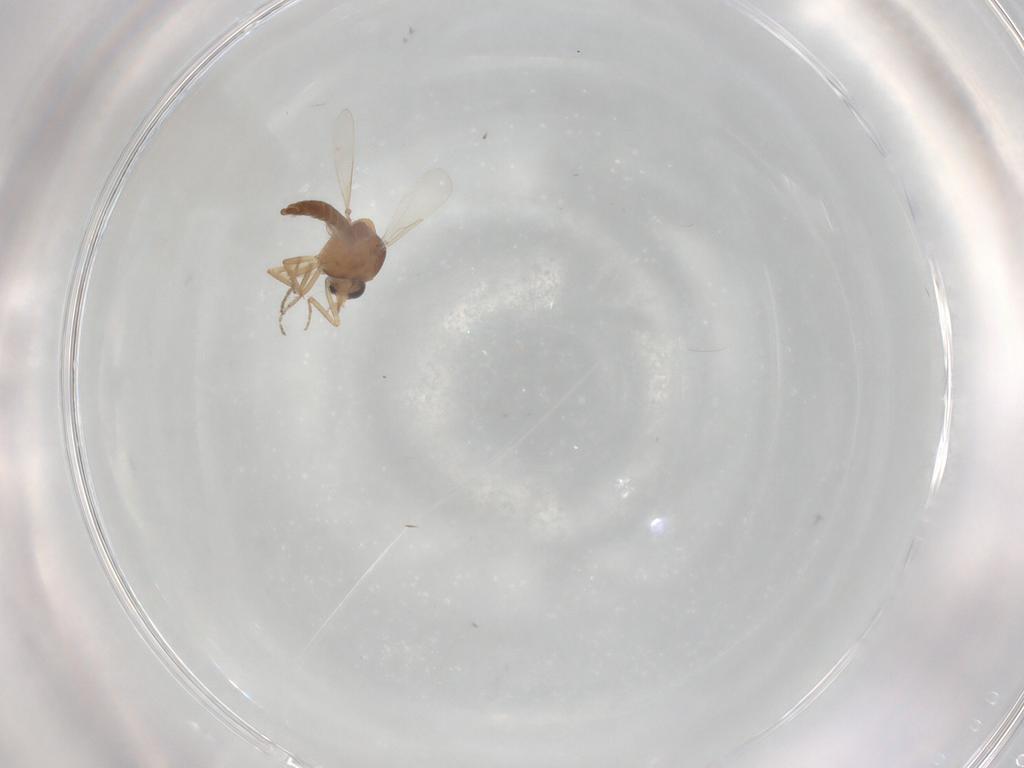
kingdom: Animalia
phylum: Arthropoda
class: Insecta
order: Diptera
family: Ceratopogonidae
